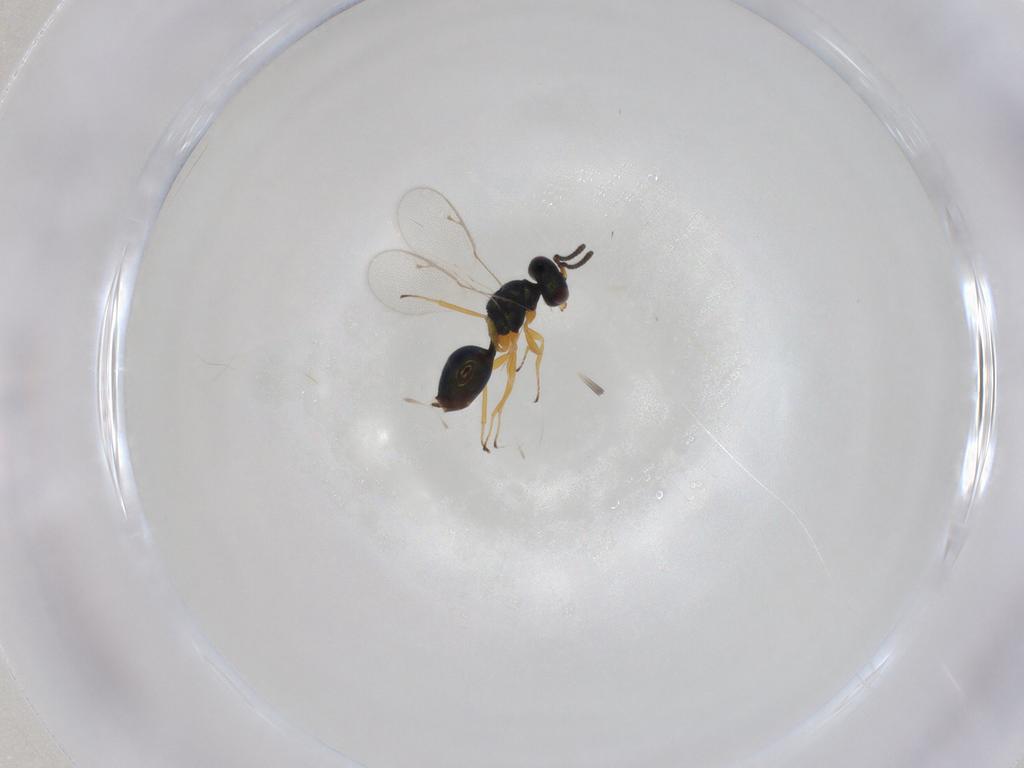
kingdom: Animalia
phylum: Arthropoda
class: Insecta
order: Hymenoptera
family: Pteromalidae
